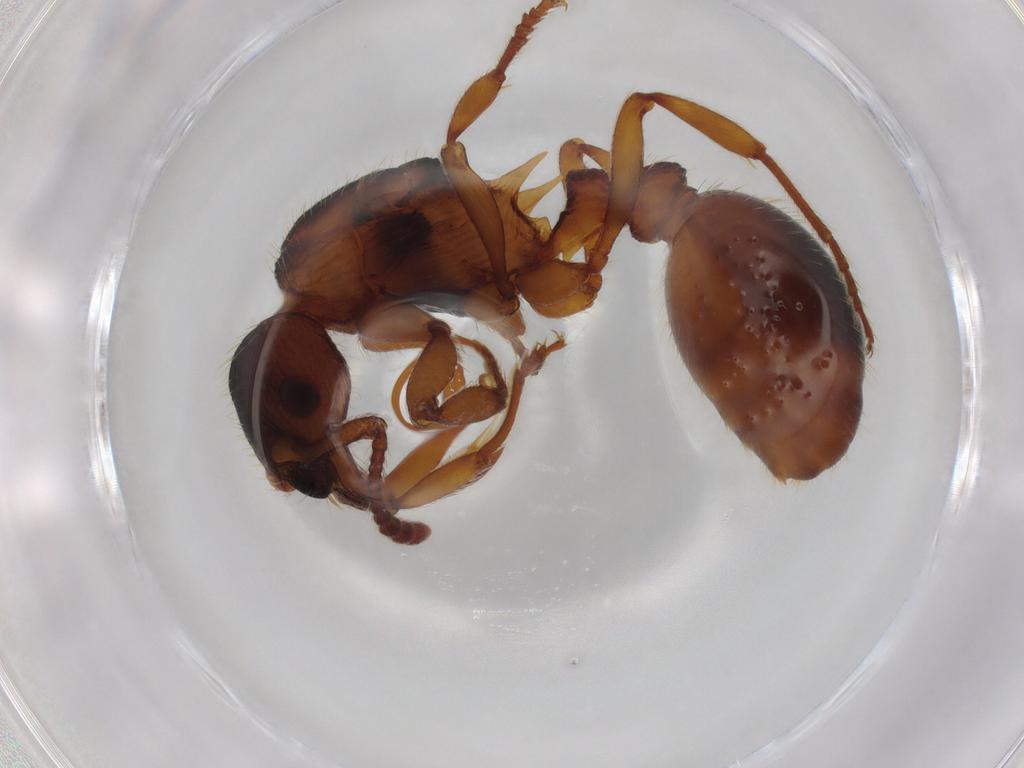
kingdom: Animalia
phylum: Arthropoda
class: Insecta
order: Hymenoptera
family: Formicidae
